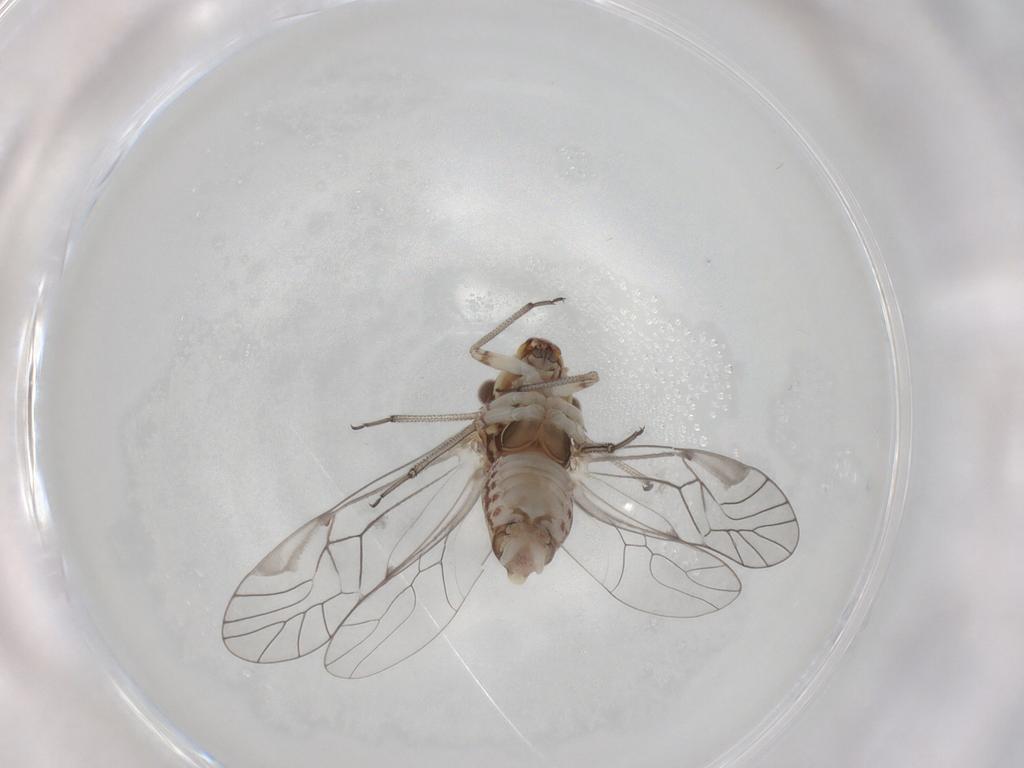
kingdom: Animalia
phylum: Arthropoda
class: Insecta
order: Psocodea
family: Psocidae
